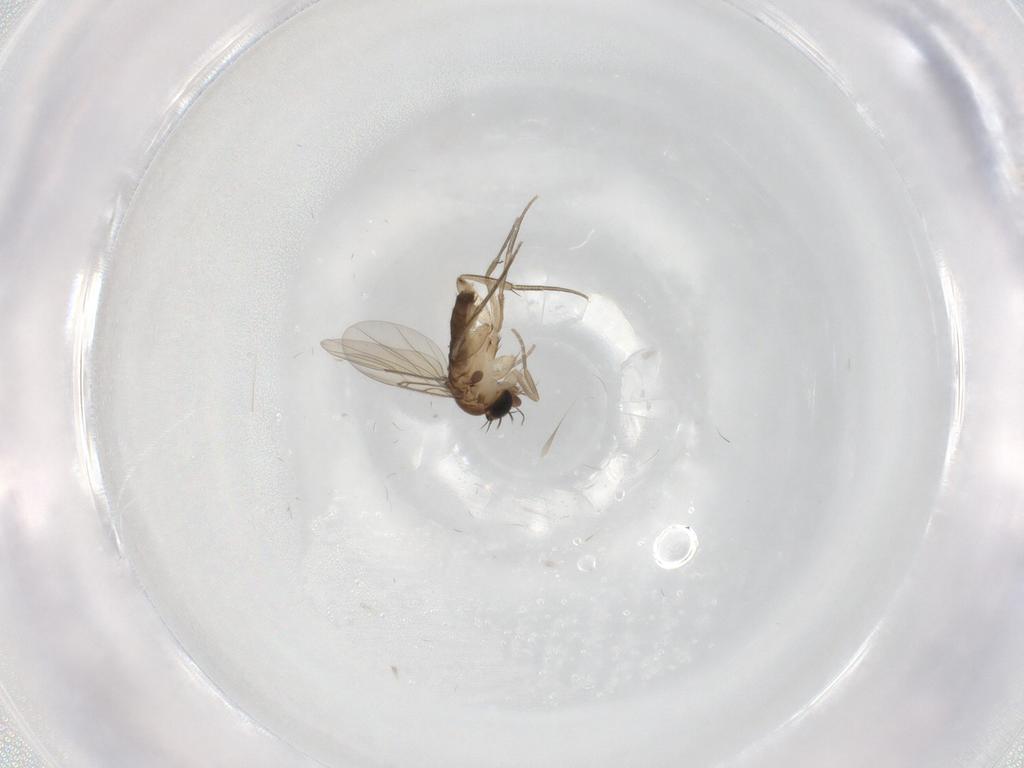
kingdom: Animalia
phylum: Arthropoda
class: Insecta
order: Diptera
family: Phoridae
